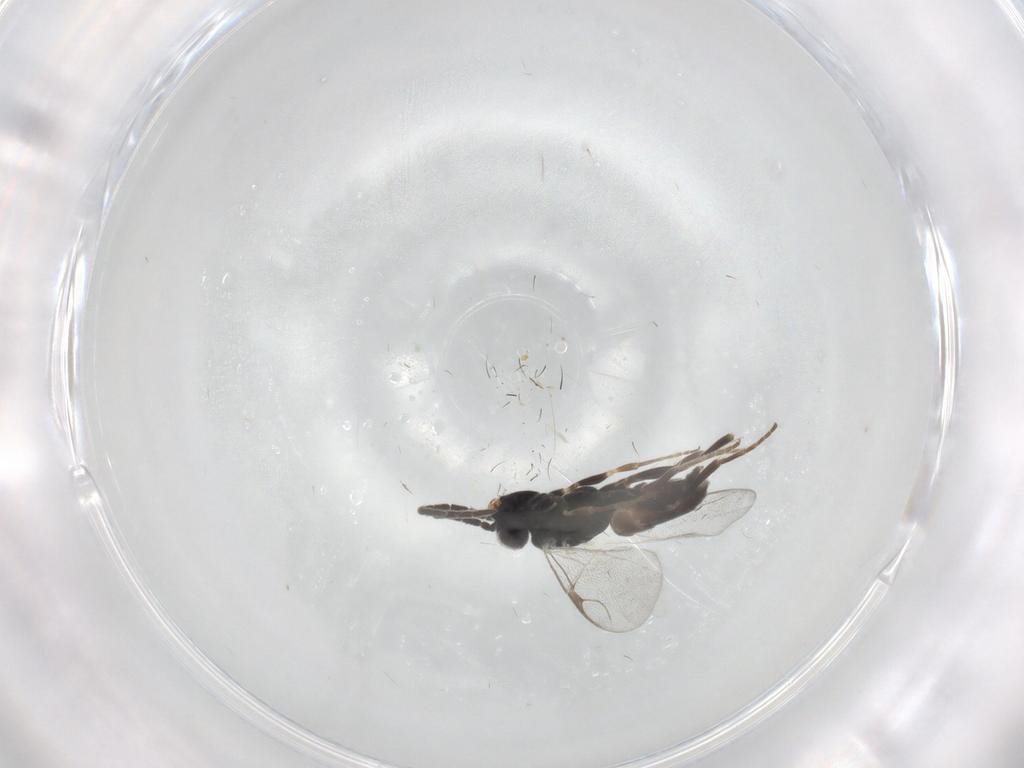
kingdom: Animalia
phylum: Arthropoda
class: Insecta
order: Hymenoptera
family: Dryinidae
